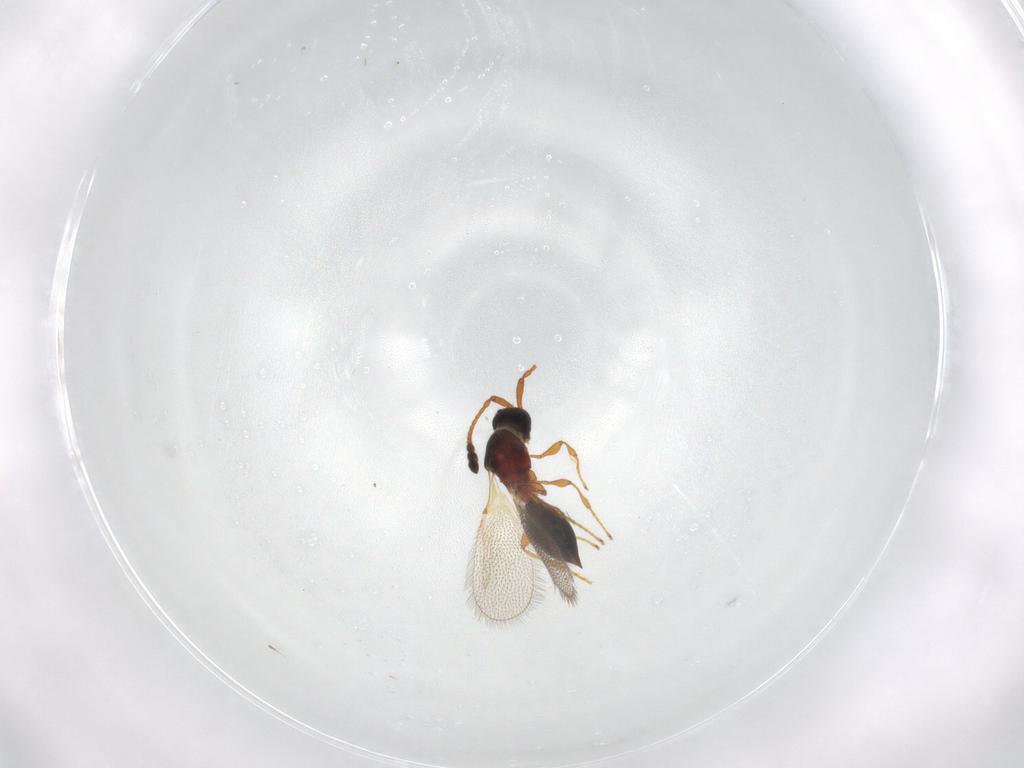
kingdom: Animalia
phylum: Arthropoda
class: Insecta
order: Hymenoptera
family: Diapriidae
